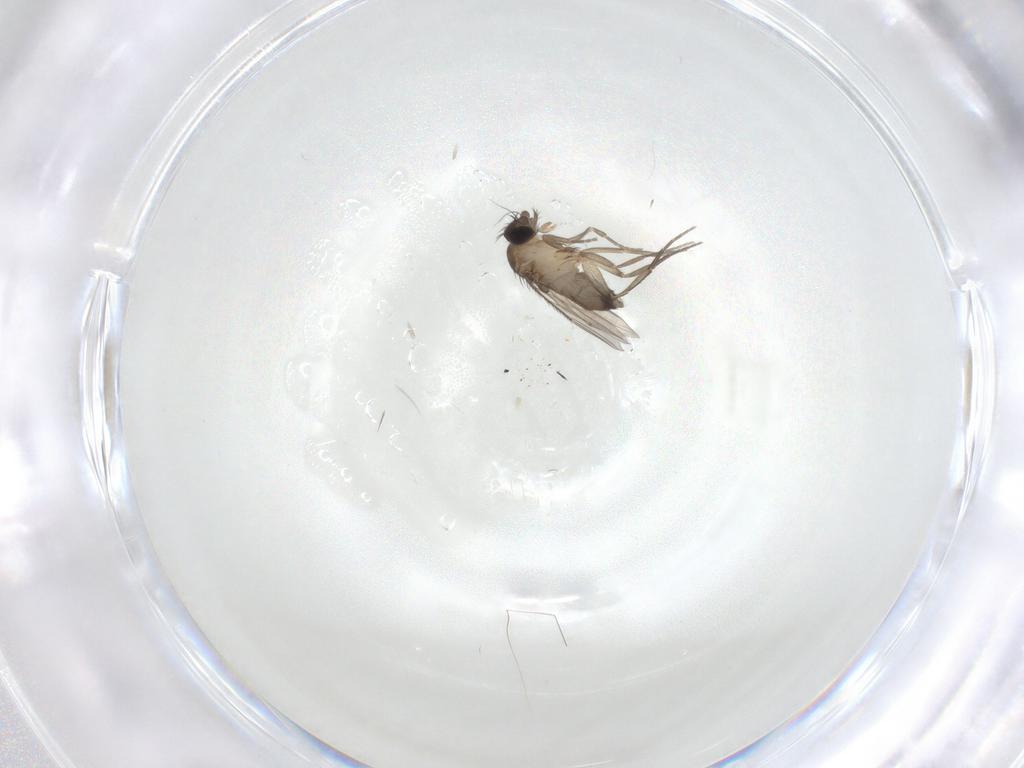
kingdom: Animalia
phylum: Arthropoda
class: Insecta
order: Diptera
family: Phoridae
